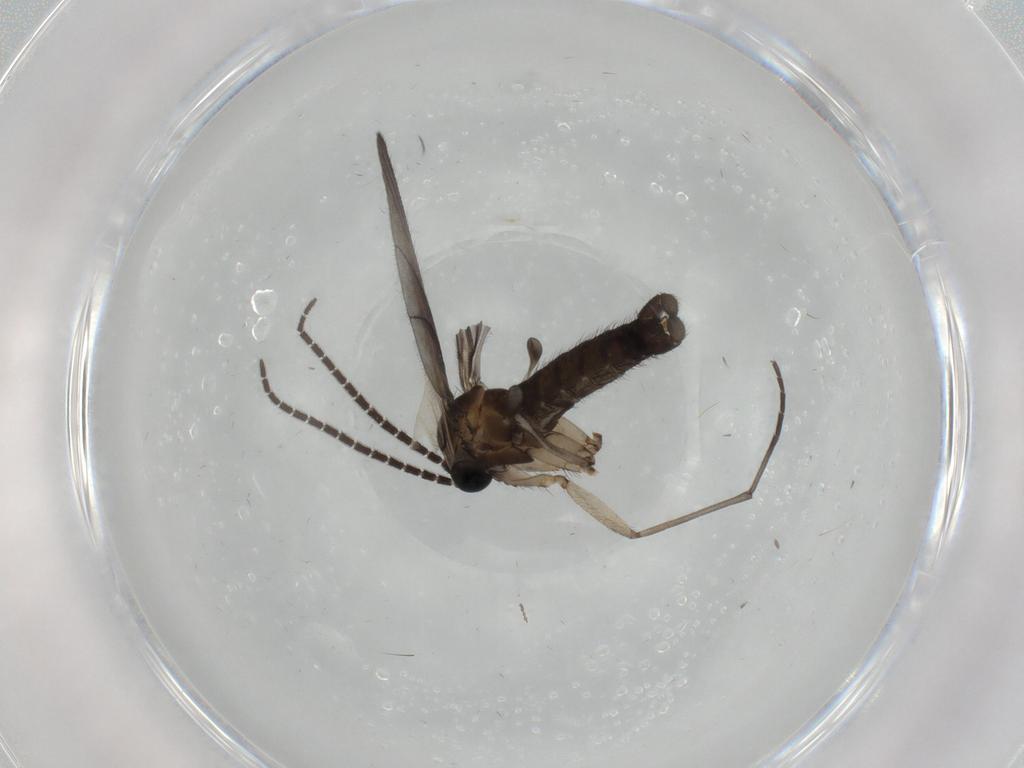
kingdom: Animalia
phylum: Arthropoda
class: Insecta
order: Diptera
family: Sciaridae
